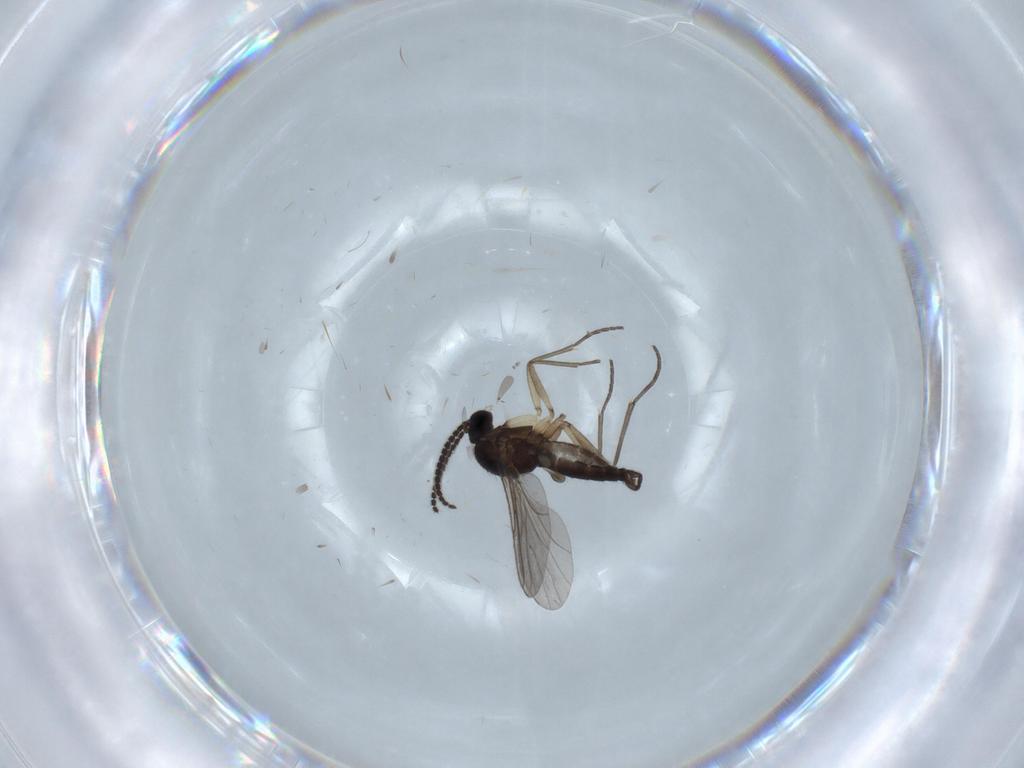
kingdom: Animalia
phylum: Arthropoda
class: Insecta
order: Diptera
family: Sciaridae
